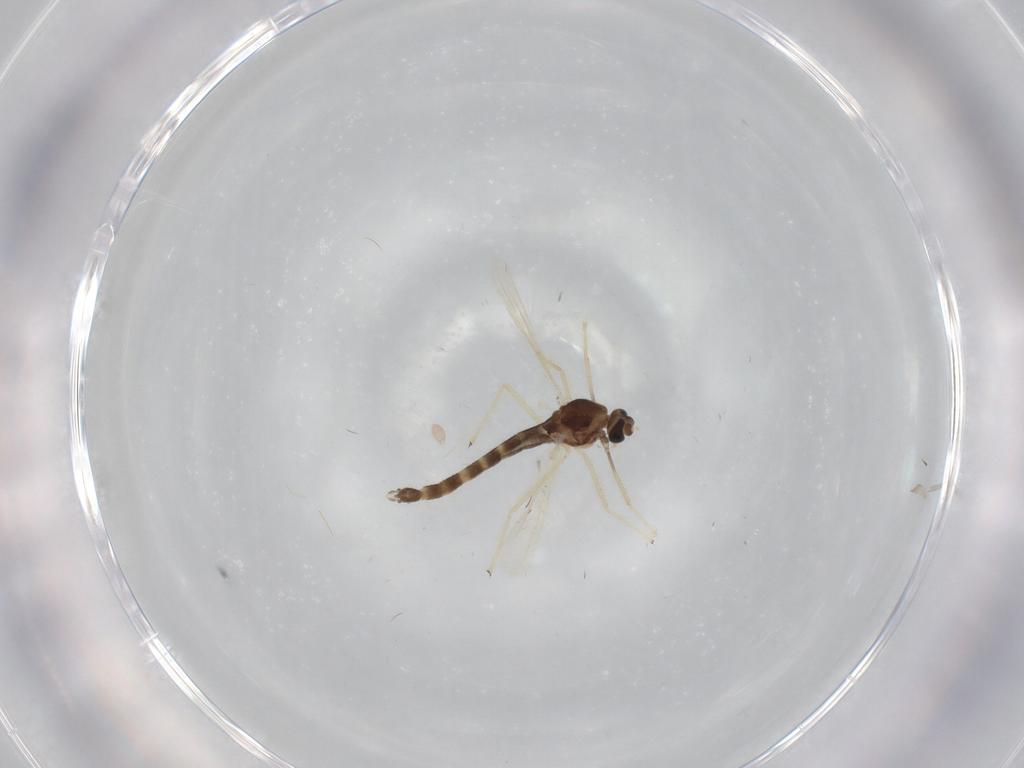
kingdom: Animalia
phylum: Arthropoda
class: Insecta
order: Diptera
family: Chironomidae
